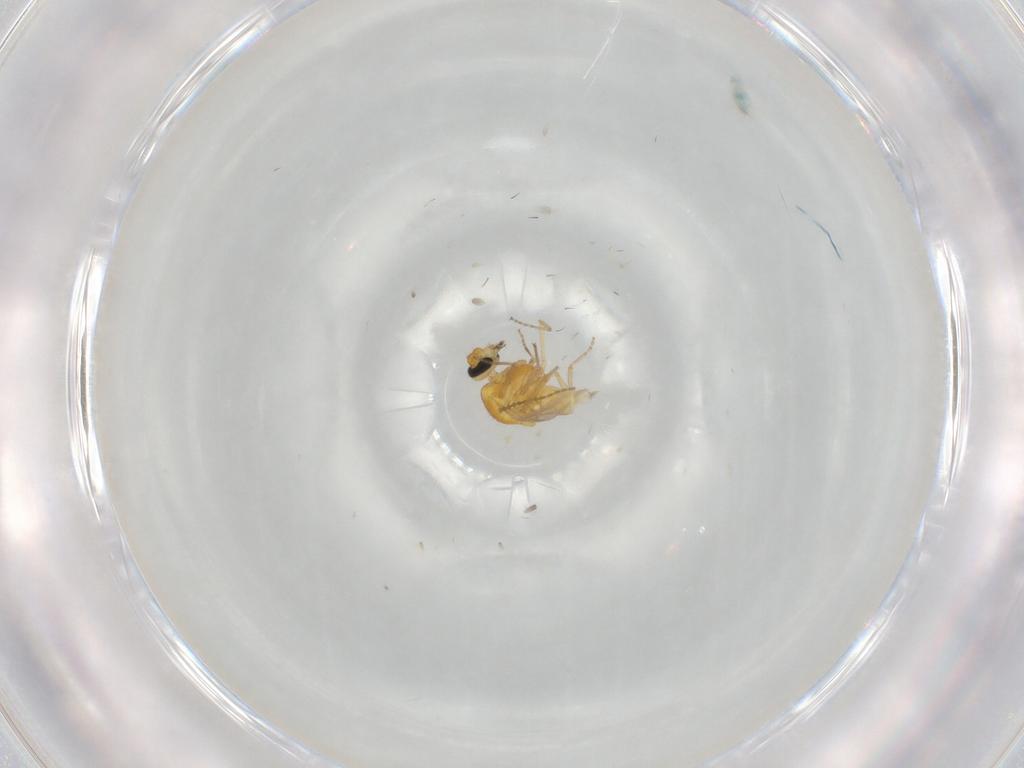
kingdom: Animalia
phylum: Arthropoda
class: Insecta
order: Diptera
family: Ceratopogonidae
